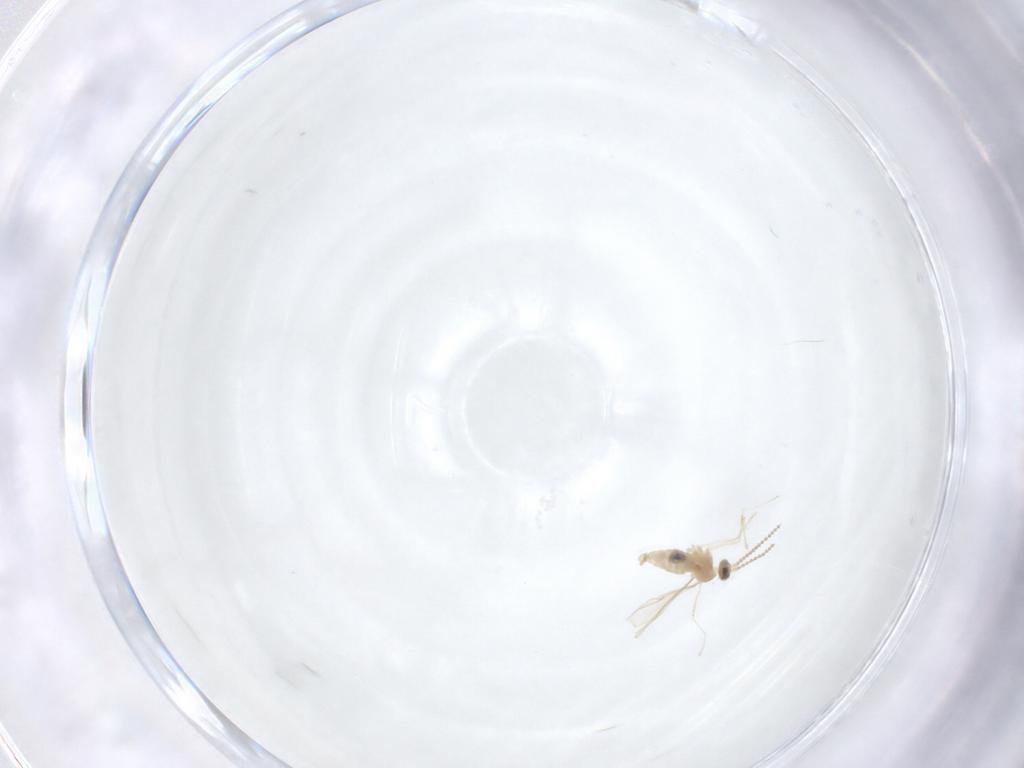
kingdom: Animalia
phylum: Arthropoda
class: Insecta
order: Diptera
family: Cecidomyiidae
